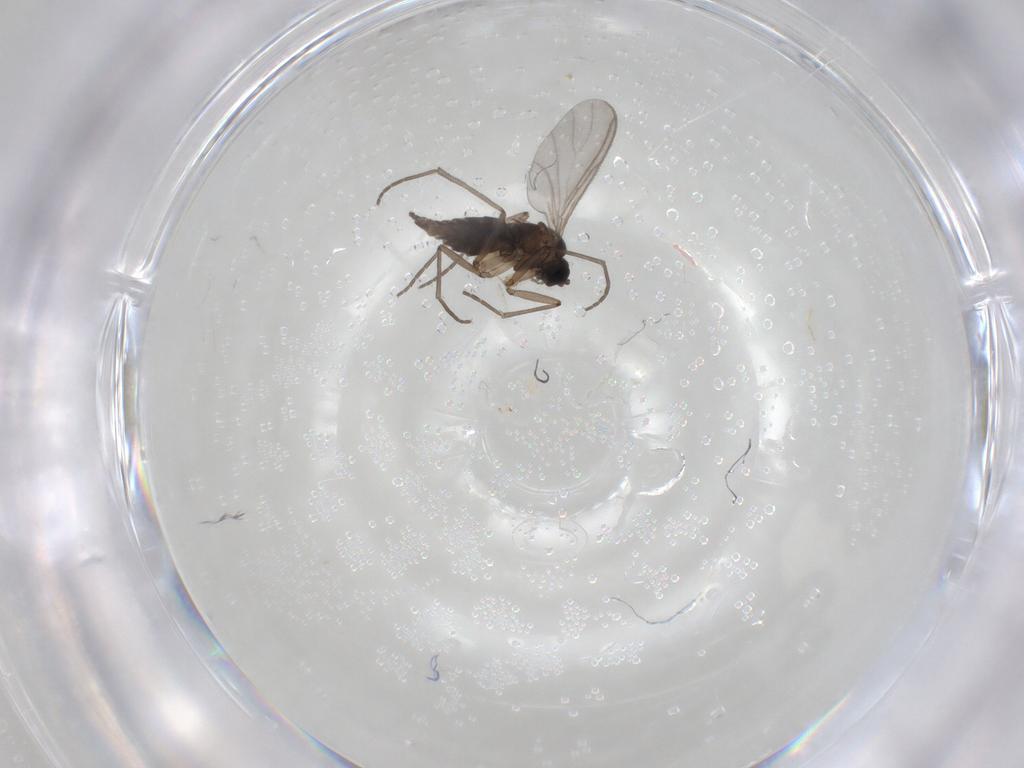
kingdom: Animalia
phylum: Arthropoda
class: Insecta
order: Diptera
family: Sciaridae
